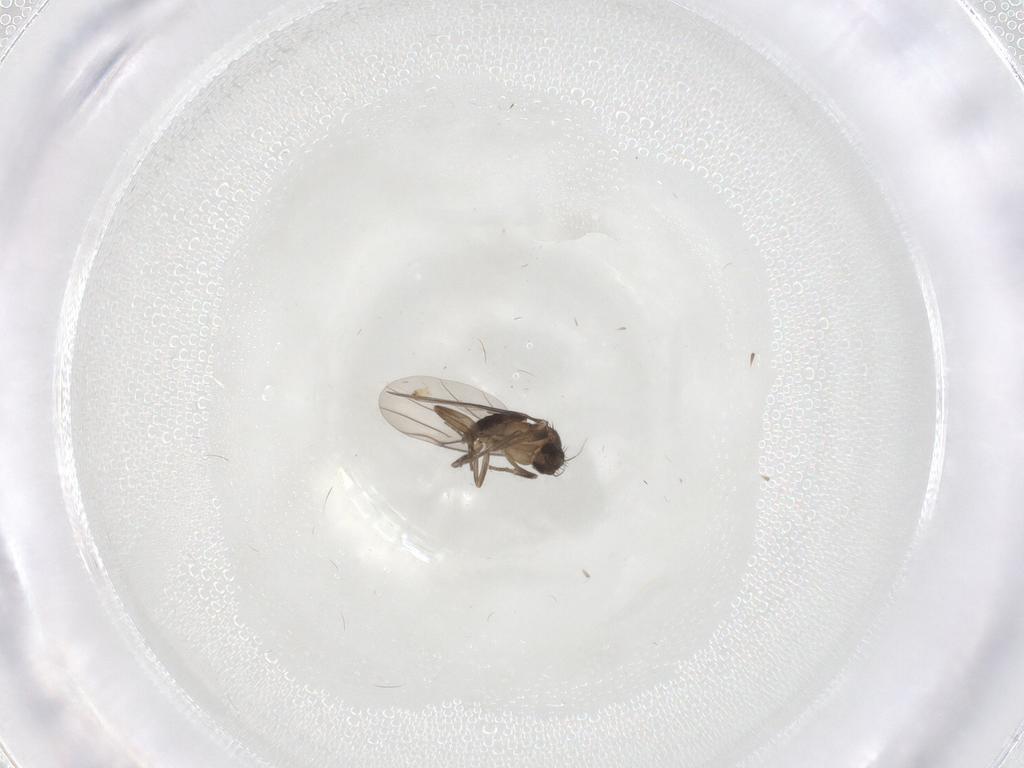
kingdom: Animalia
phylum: Arthropoda
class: Insecta
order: Diptera
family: Phoridae
